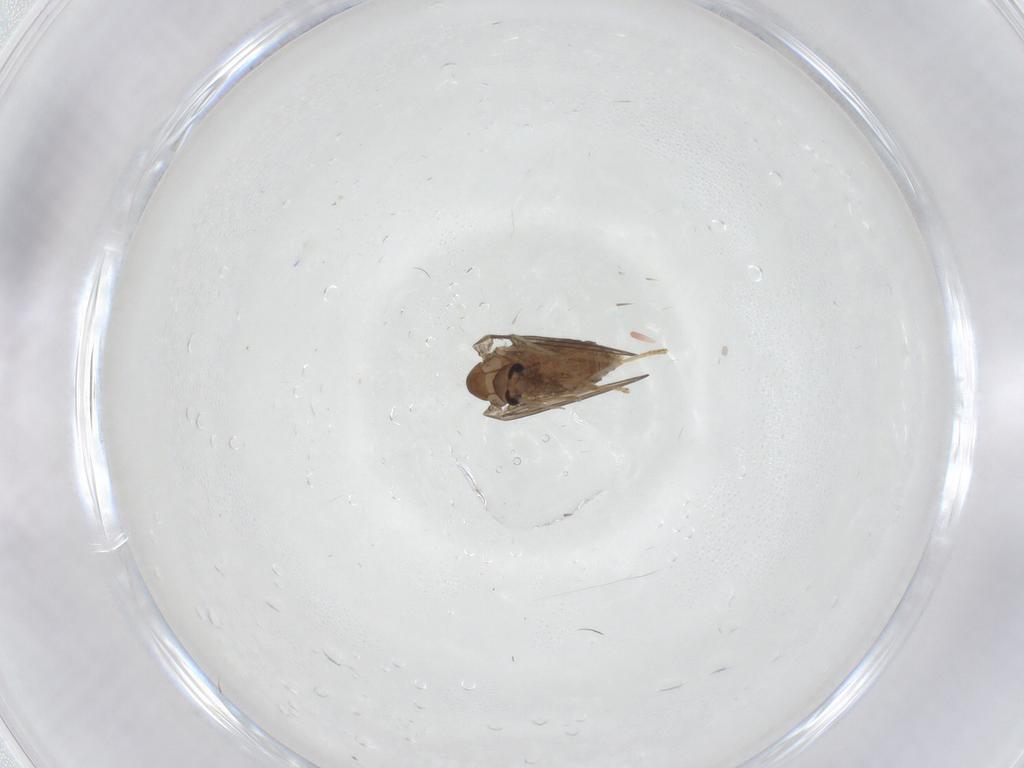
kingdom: Animalia
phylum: Arthropoda
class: Insecta
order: Diptera
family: Psychodidae
